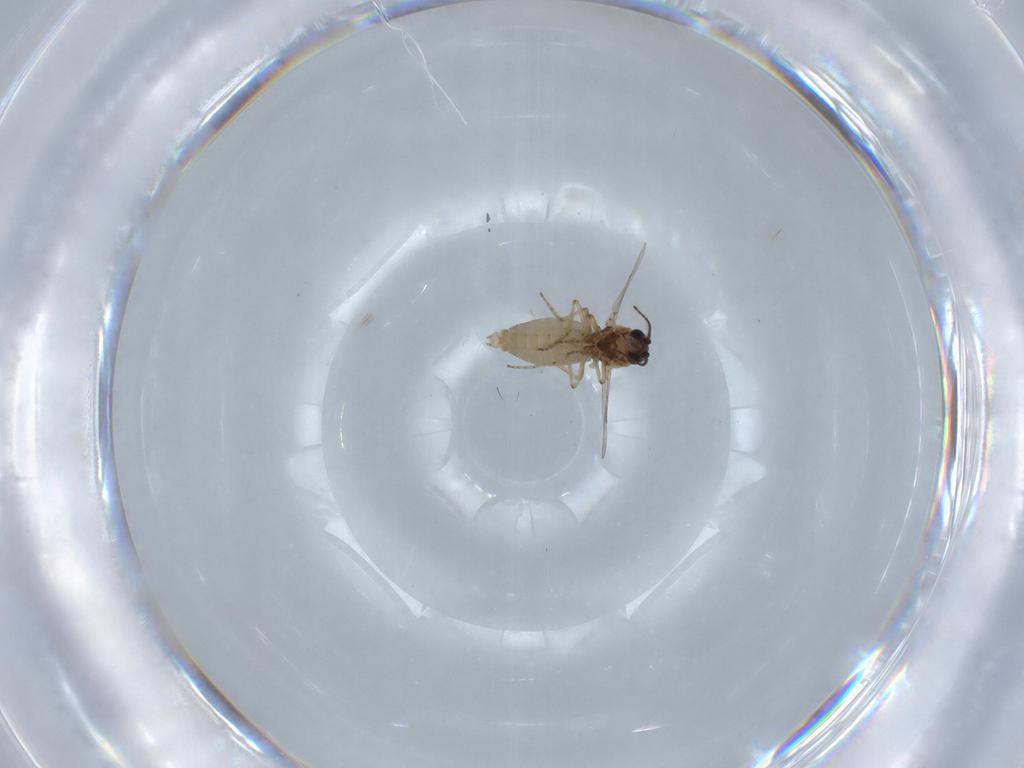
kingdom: Animalia
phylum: Arthropoda
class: Insecta
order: Diptera
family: Ceratopogonidae
